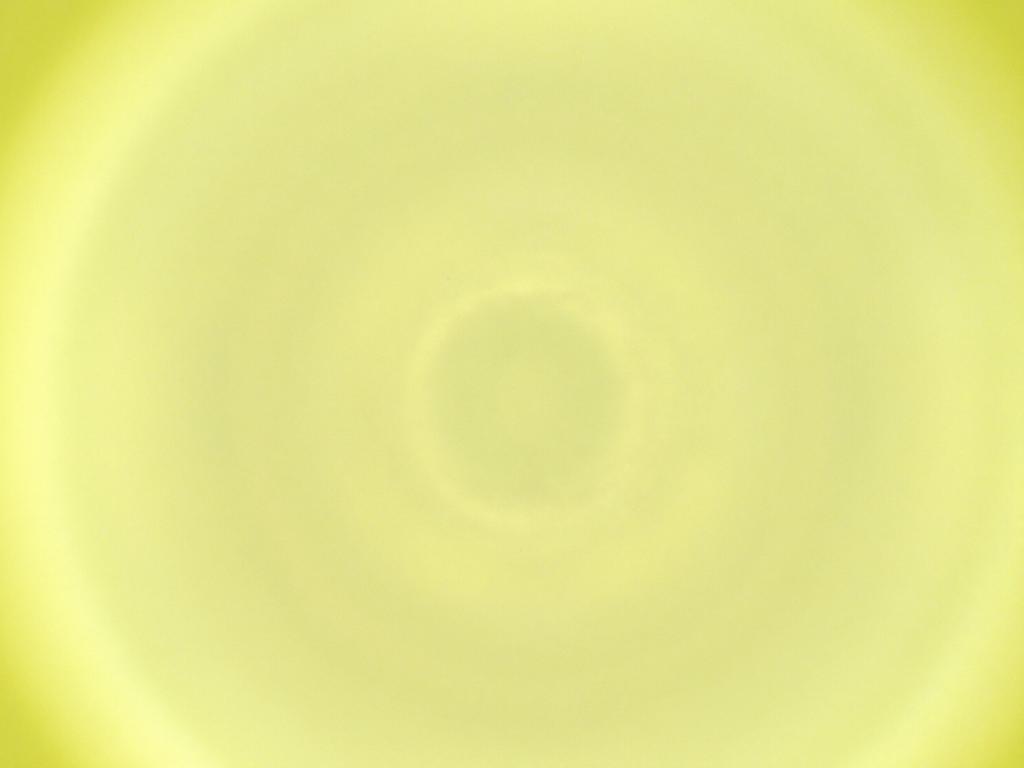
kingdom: Animalia
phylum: Arthropoda
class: Insecta
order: Diptera
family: Cecidomyiidae
